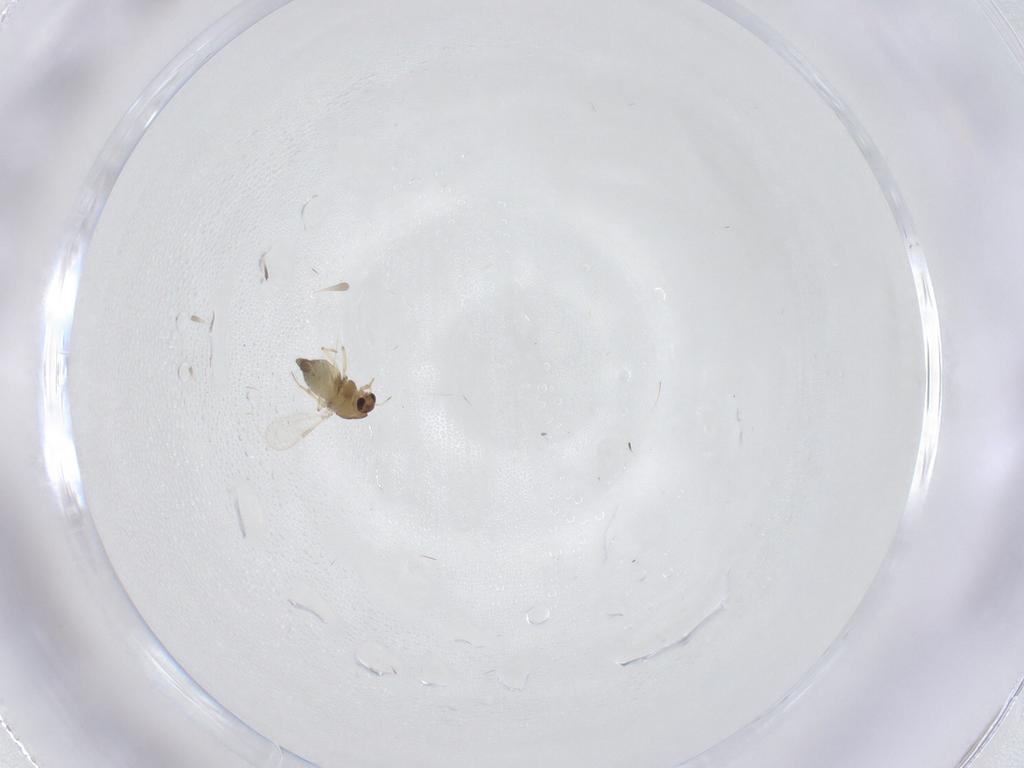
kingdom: Animalia
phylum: Arthropoda
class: Insecta
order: Diptera
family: Chironomidae
